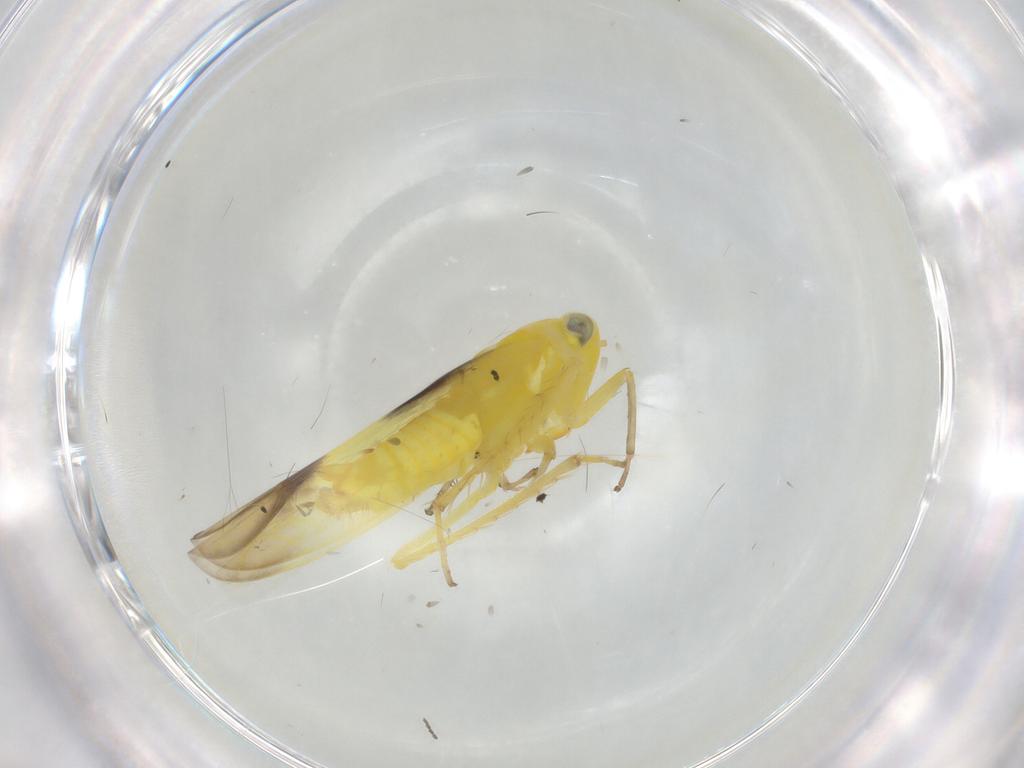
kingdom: Animalia
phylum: Arthropoda
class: Insecta
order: Hemiptera
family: Cicadellidae
